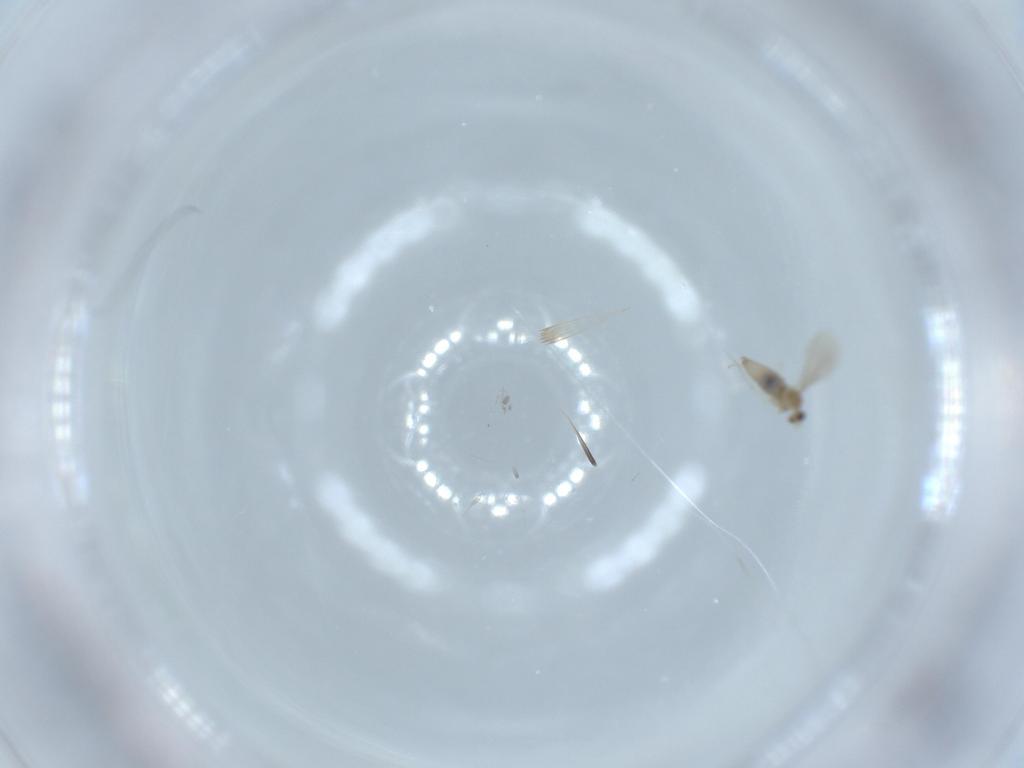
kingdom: Animalia
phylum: Arthropoda
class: Insecta
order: Diptera
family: Cecidomyiidae
